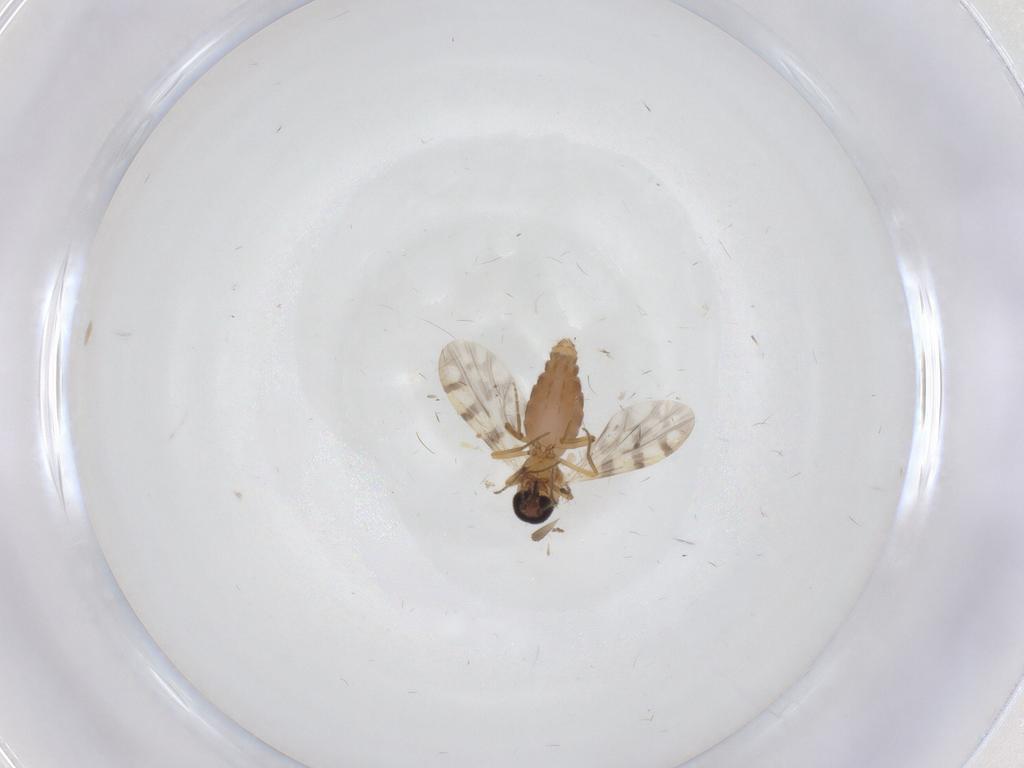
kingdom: Animalia
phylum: Arthropoda
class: Insecta
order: Diptera
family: Ceratopogonidae
